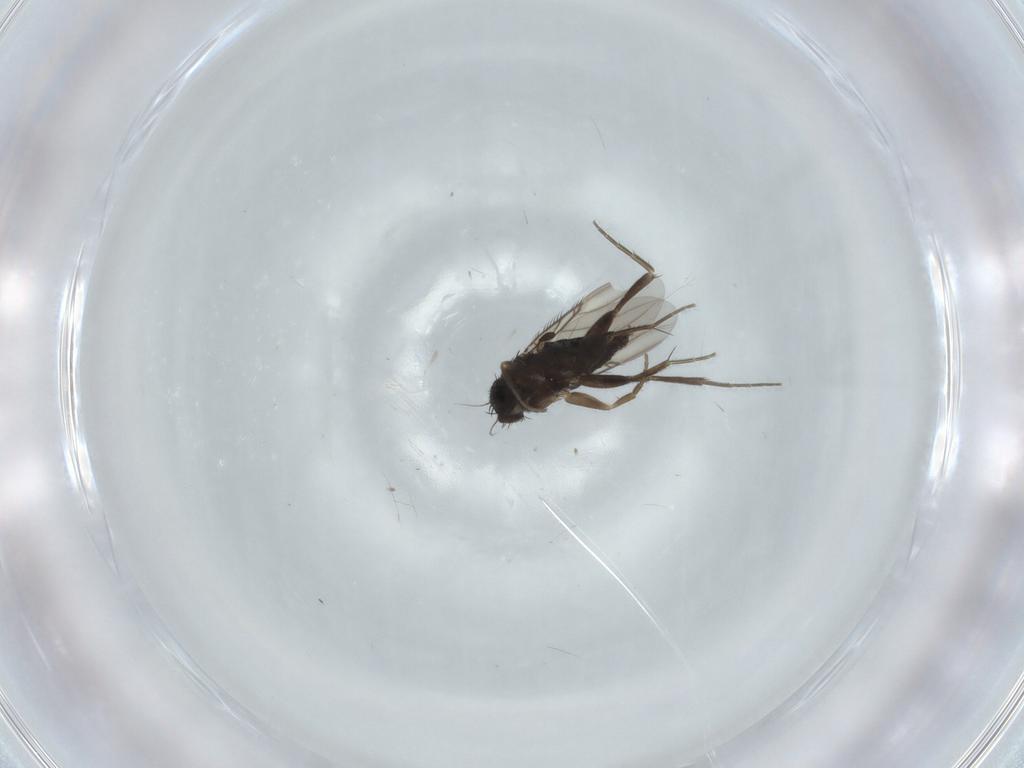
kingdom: Animalia
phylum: Arthropoda
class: Insecta
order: Diptera
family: Phoridae
